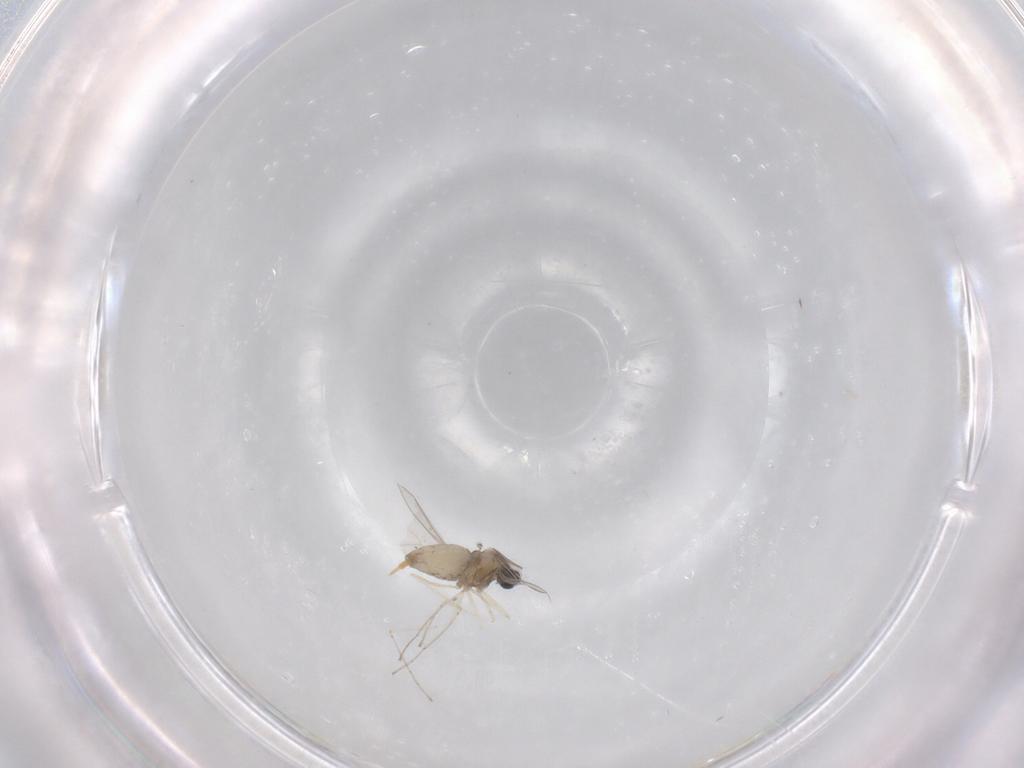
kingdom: Animalia
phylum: Arthropoda
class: Insecta
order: Diptera
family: Cecidomyiidae
